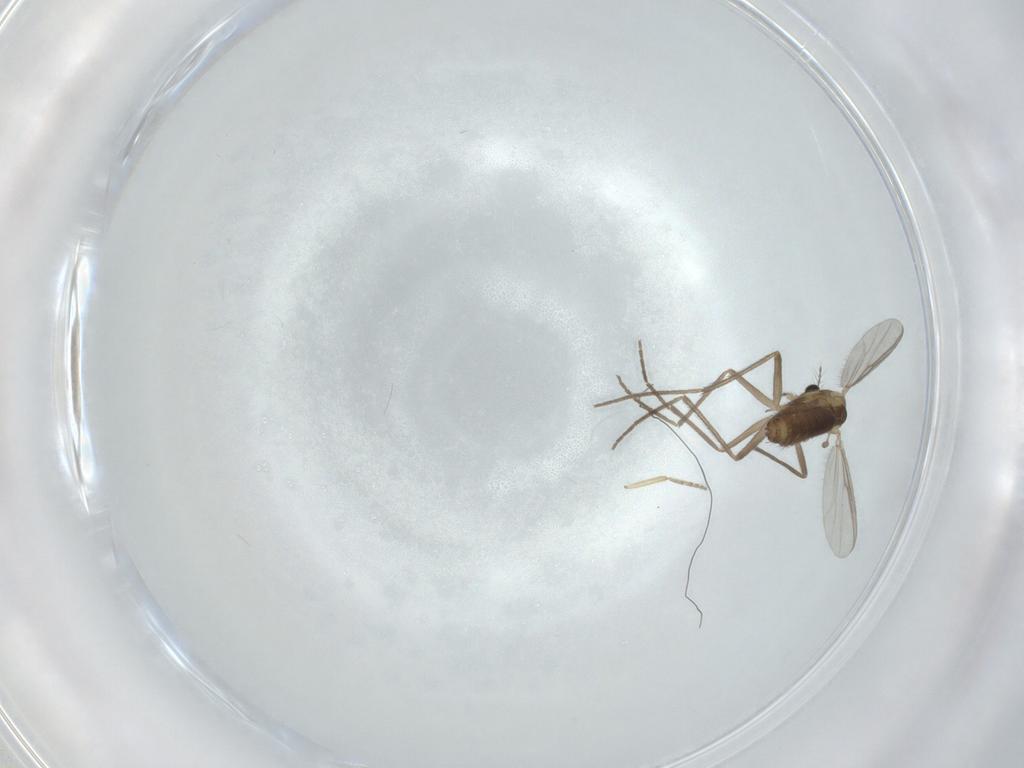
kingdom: Animalia
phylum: Arthropoda
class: Insecta
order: Diptera
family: Chironomidae
